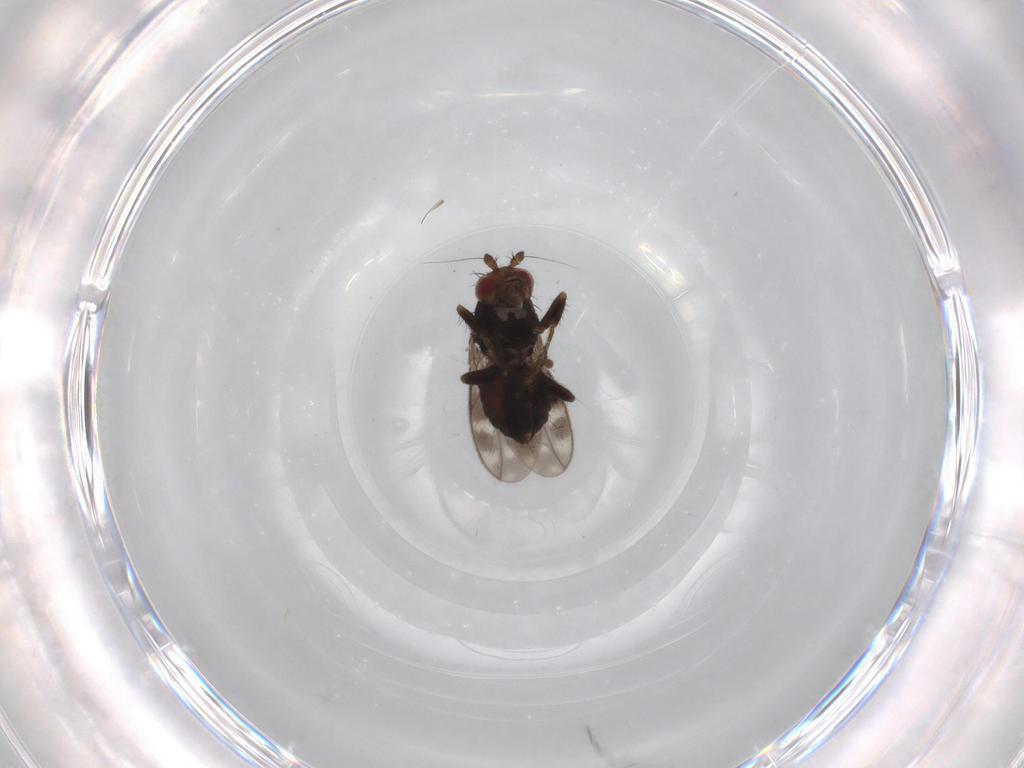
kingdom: Animalia
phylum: Arthropoda
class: Insecta
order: Diptera
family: Sphaeroceridae
